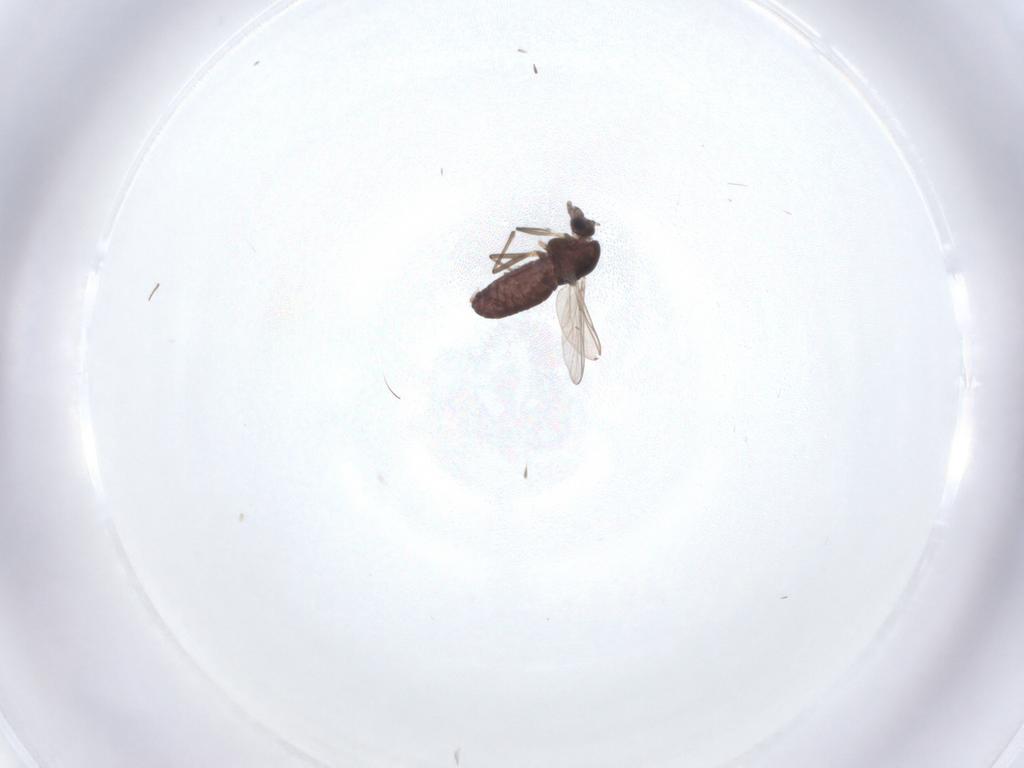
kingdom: Animalia
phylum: Arthropoda
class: Insecta
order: Diptera
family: Chironomidae
